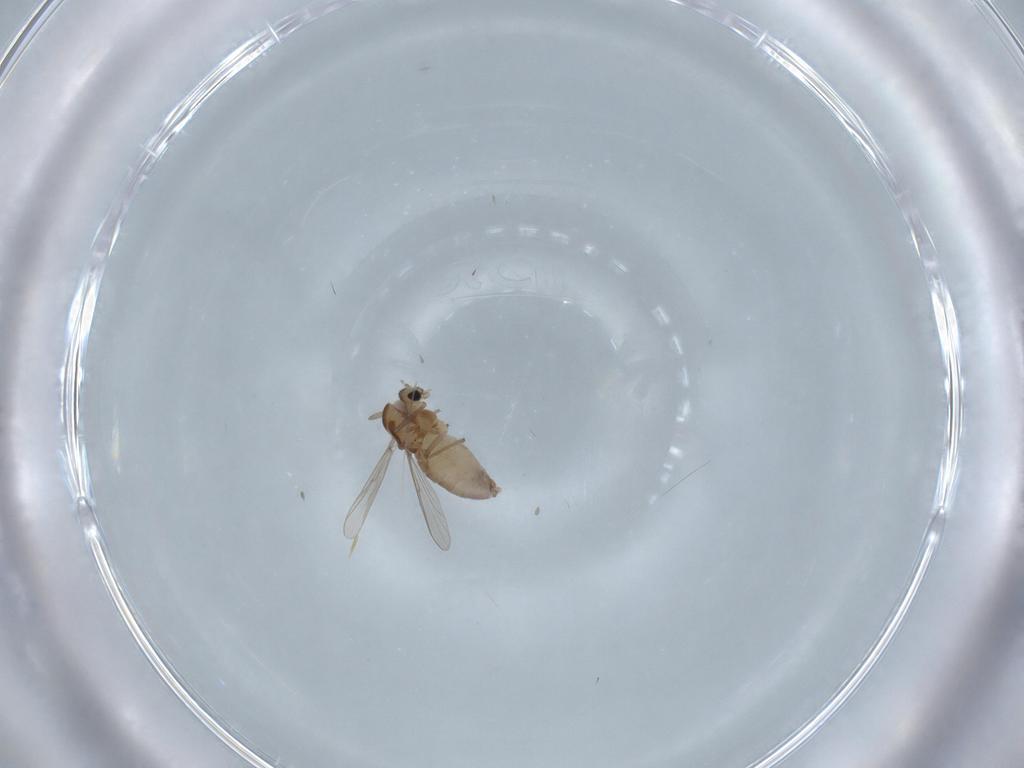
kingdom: Animalia
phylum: Arthropoda
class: Insecta
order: Diptera
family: Chironomidae
